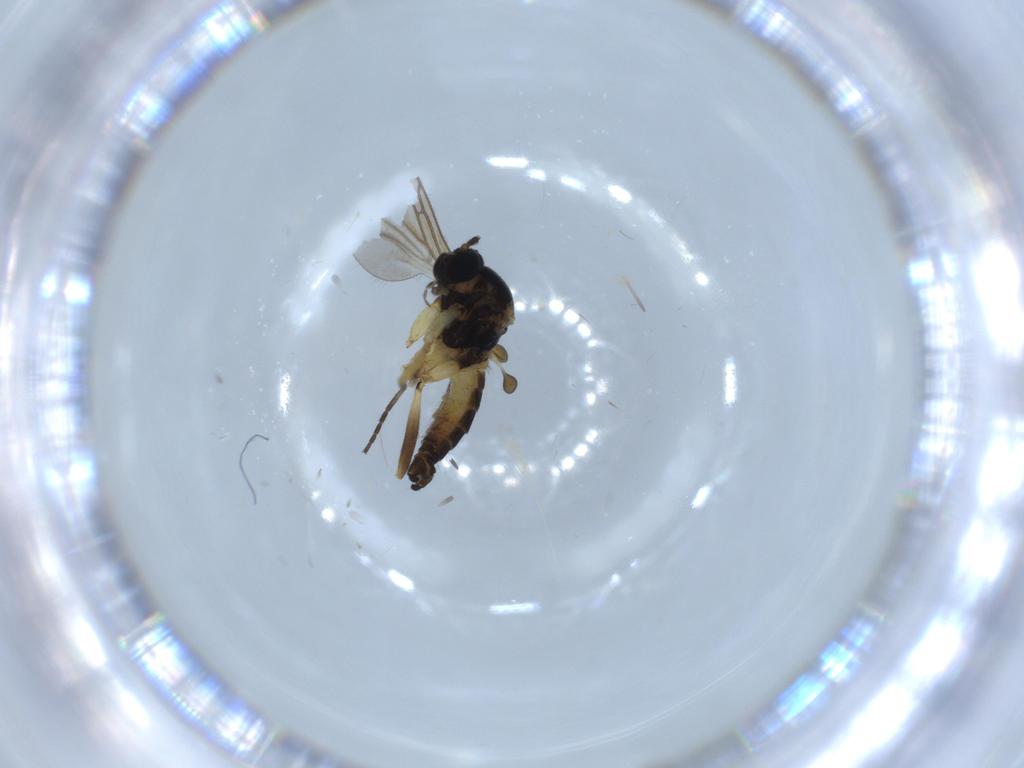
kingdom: Animalia
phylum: Arthropoda
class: Insecta
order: Diptera
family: Sciaridae
